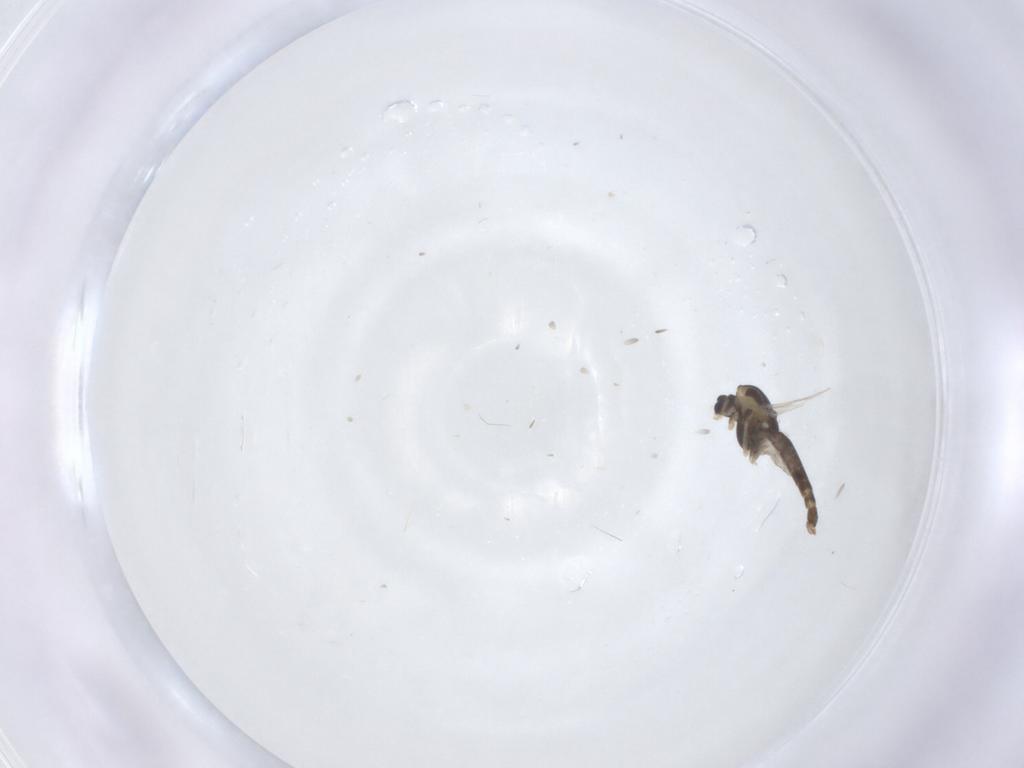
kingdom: Animalia
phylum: Arthropoda
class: Insecta
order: Diptera
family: Chironomidae
